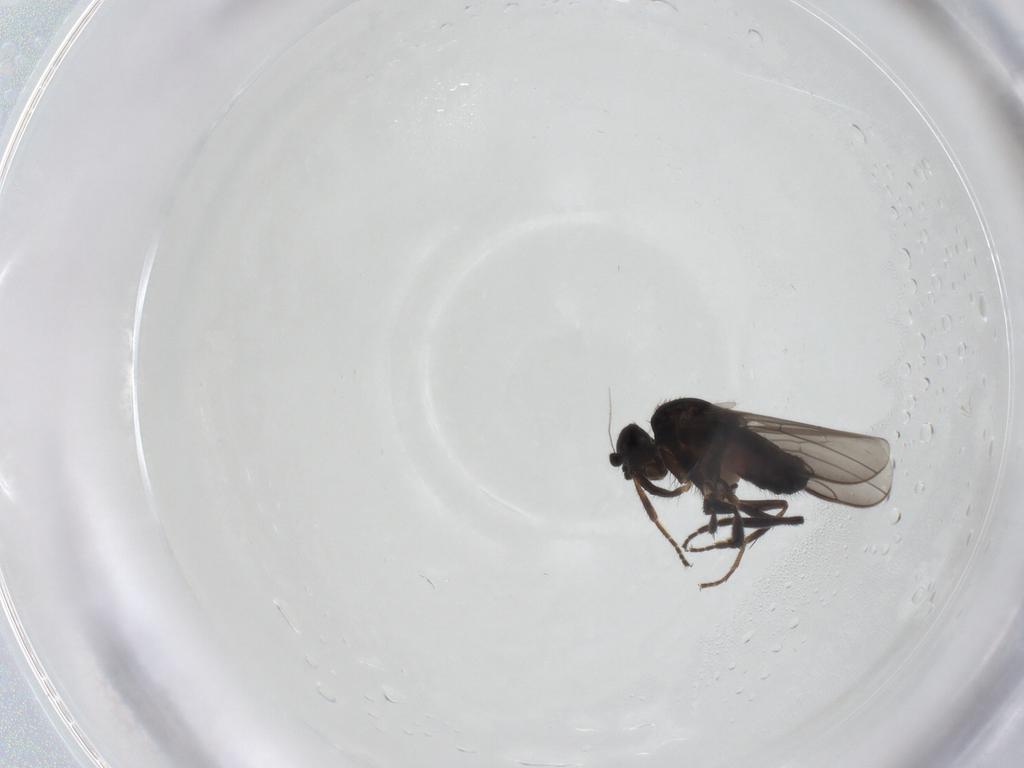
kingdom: Animalia
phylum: Arthropoda
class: Insecta
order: Diptera
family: Sphaeroceridae
